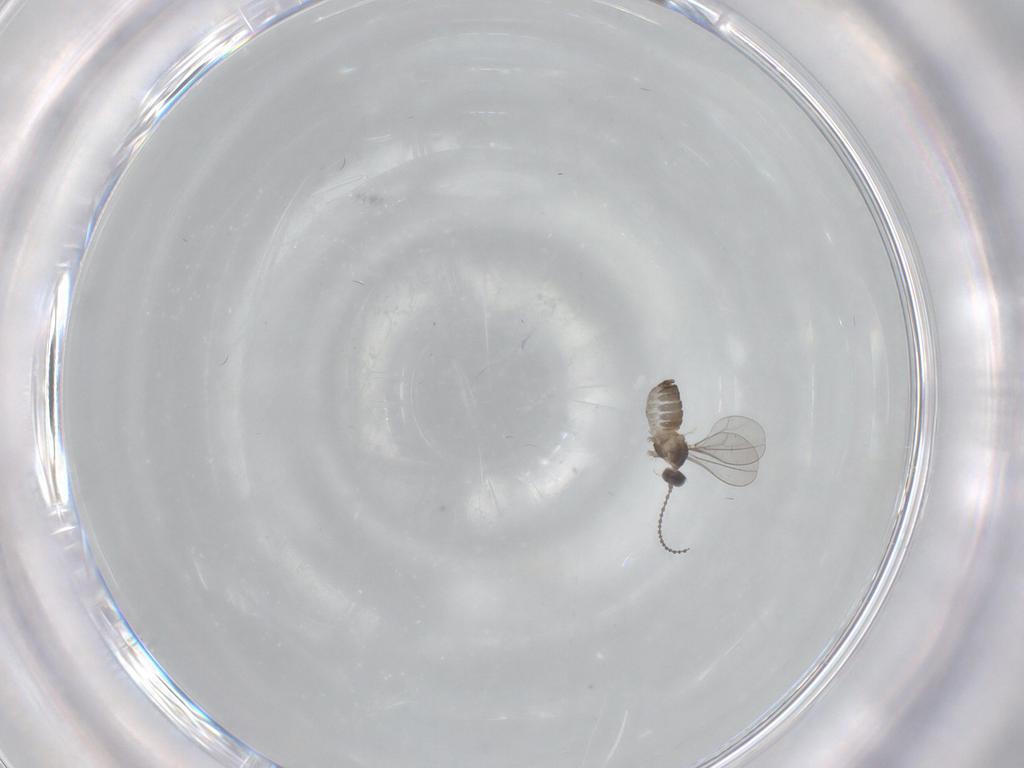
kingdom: Animalia
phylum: Arthropoda
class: Insecta
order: Diptera
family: Cecidomyiidae
